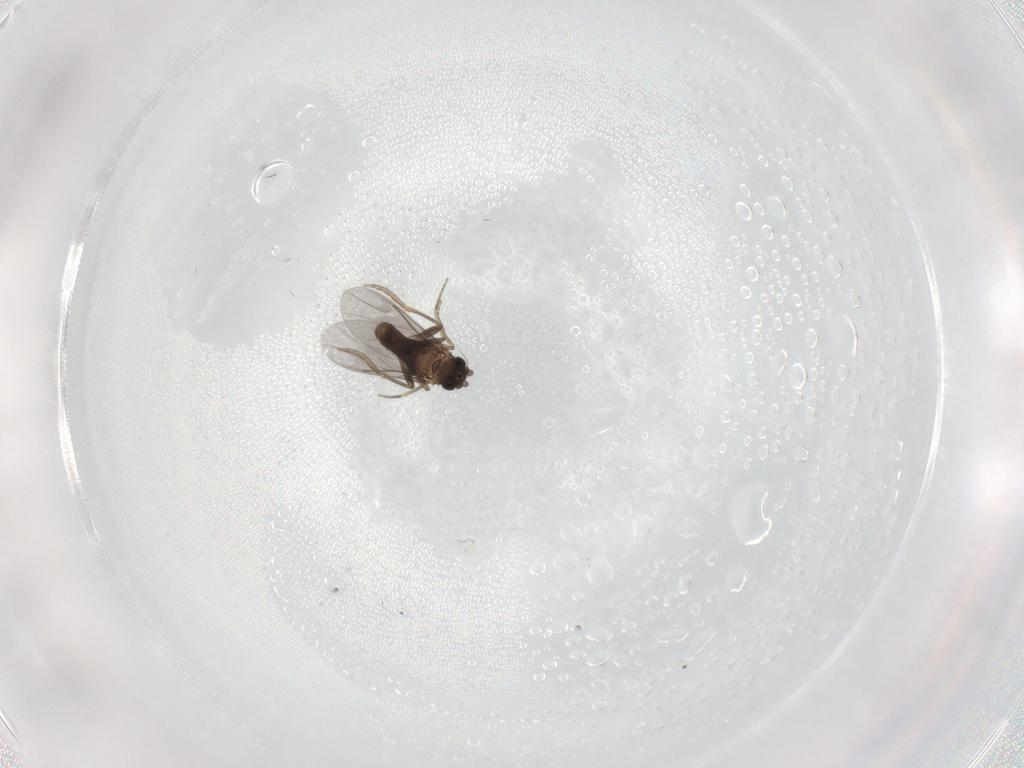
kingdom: Animalia
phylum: Arthropoda
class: Insecta
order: Diptera
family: Cecidomyiidae
